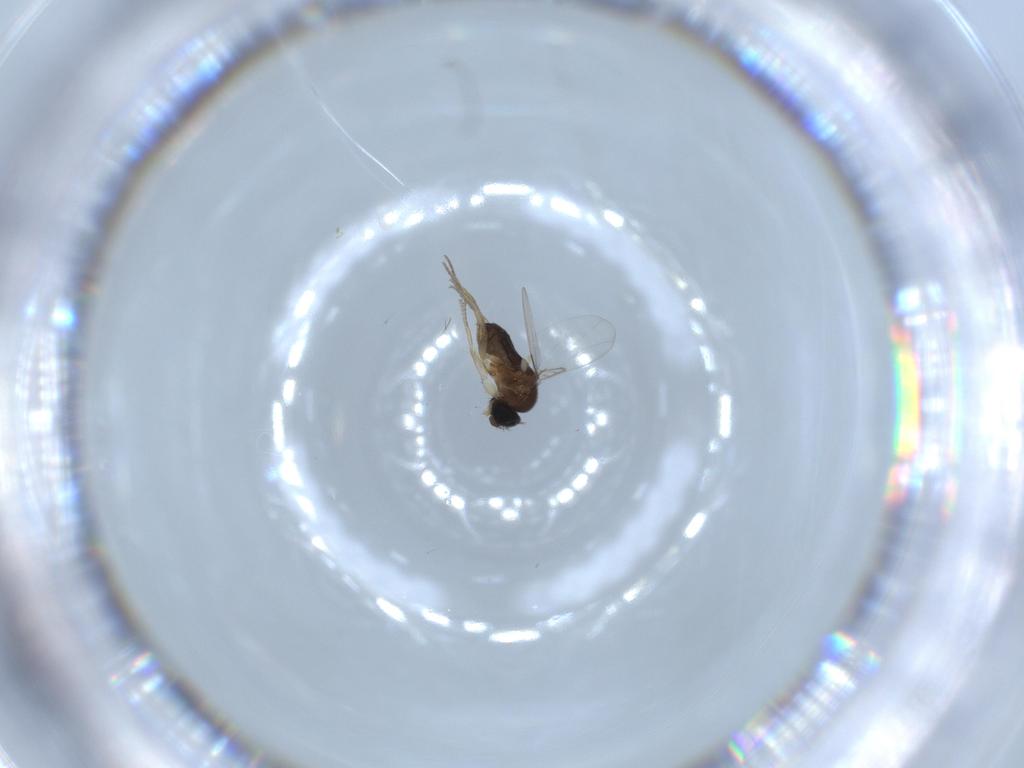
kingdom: Animalia
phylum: Arthropoda
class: Insecta
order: Diptera
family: Phoridae
